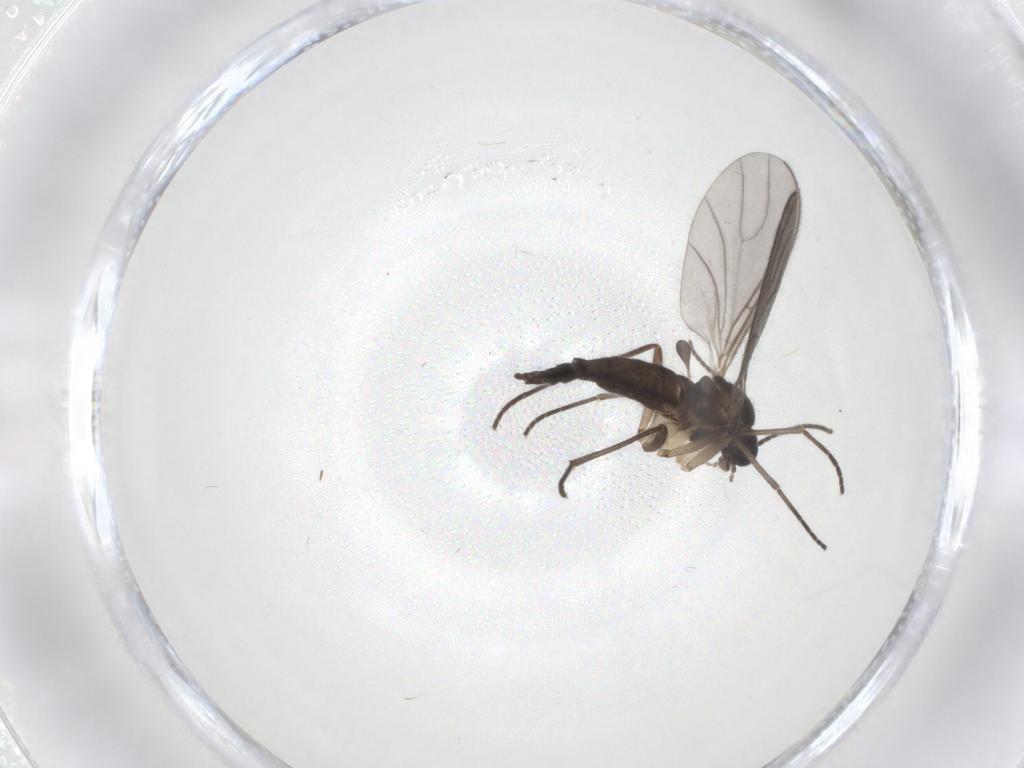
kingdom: Animalia
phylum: Arthropoda
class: Insecta
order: Diptera
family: Sciaridae
